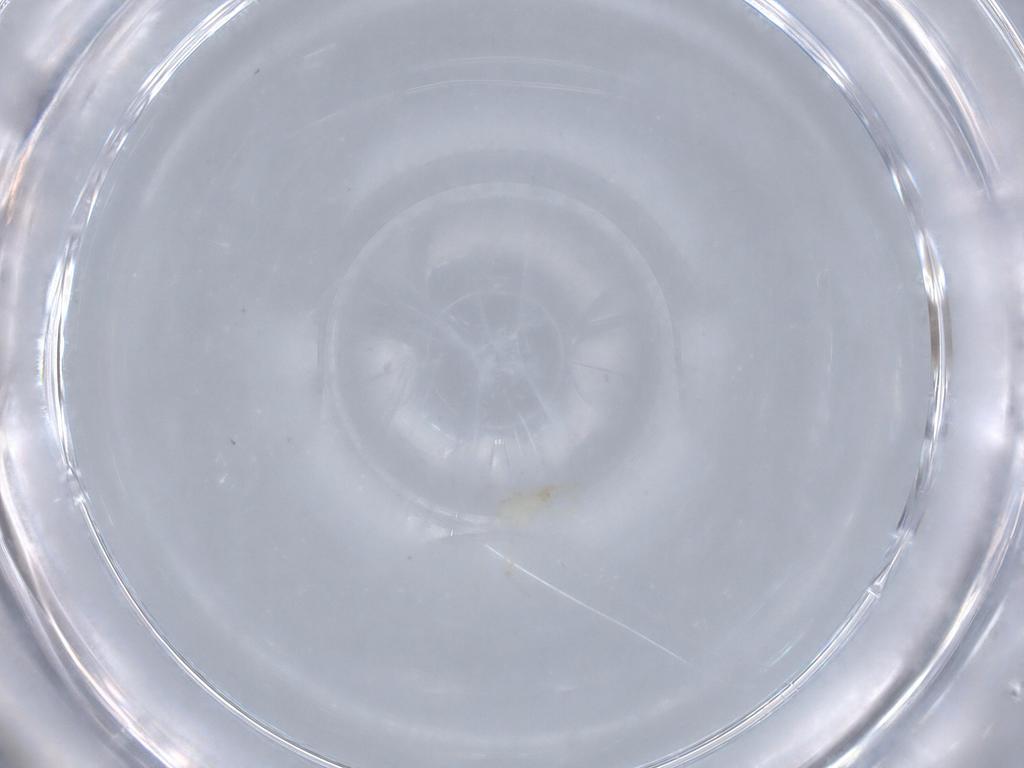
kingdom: Animalia
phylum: Arthropoda
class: Arachnida
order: Trombidiformes
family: Erythraeidae
